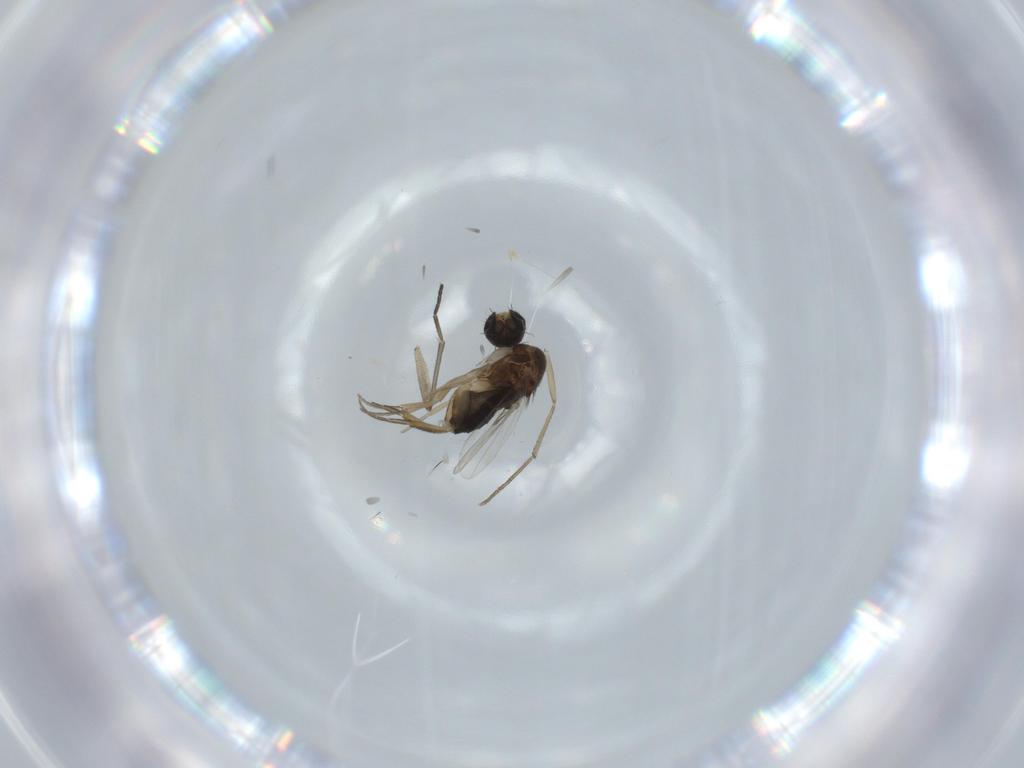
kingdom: Animalia
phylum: Arthropoda
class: Insecta
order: Diptera
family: Phoridae
